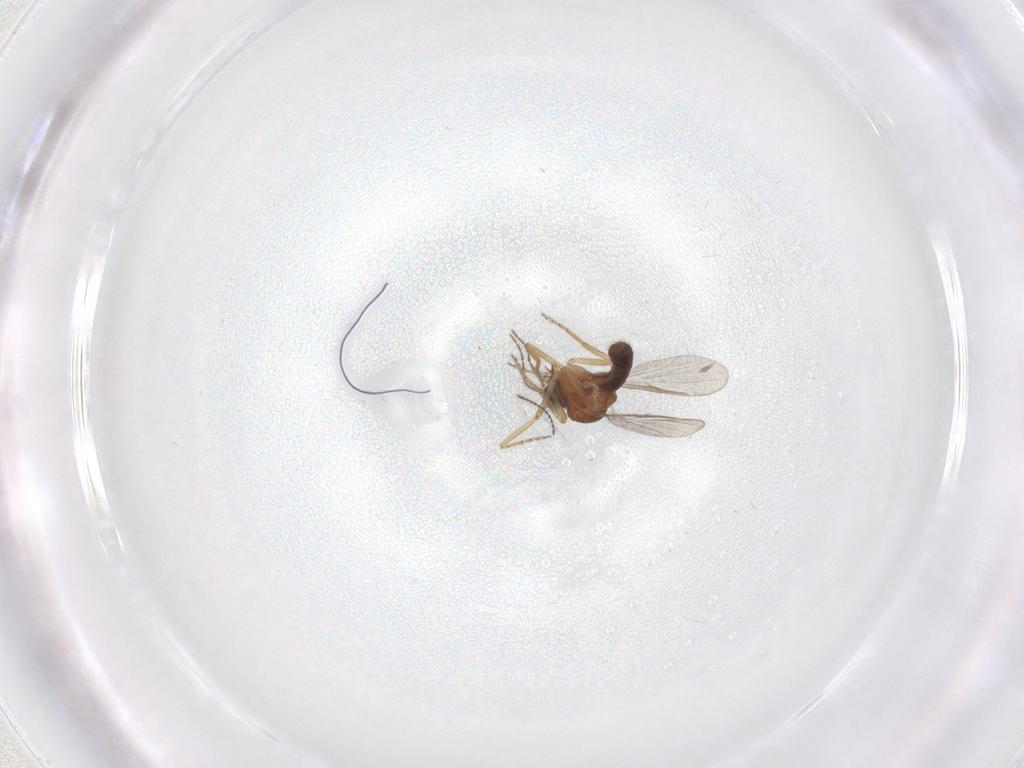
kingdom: Animalia
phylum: Arthropoda
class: Insecta
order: Diptera
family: Ceratopogonidae
